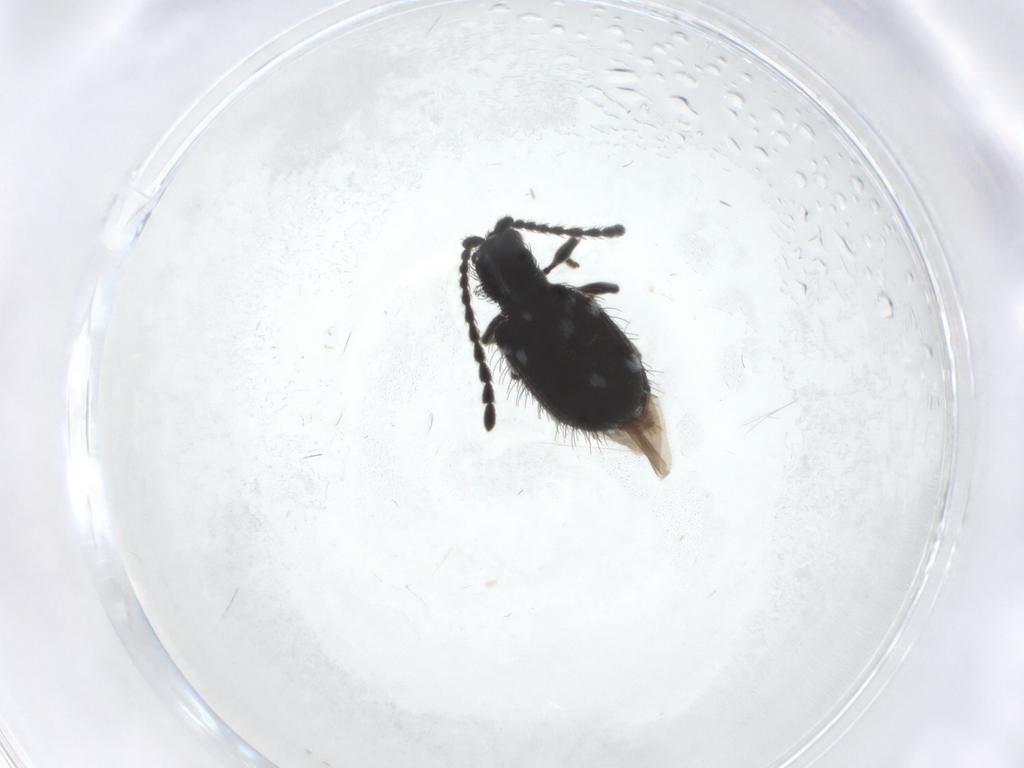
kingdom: Animalia
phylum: Arthropoda
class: Insecta
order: Coleoptera
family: Ptinidae
